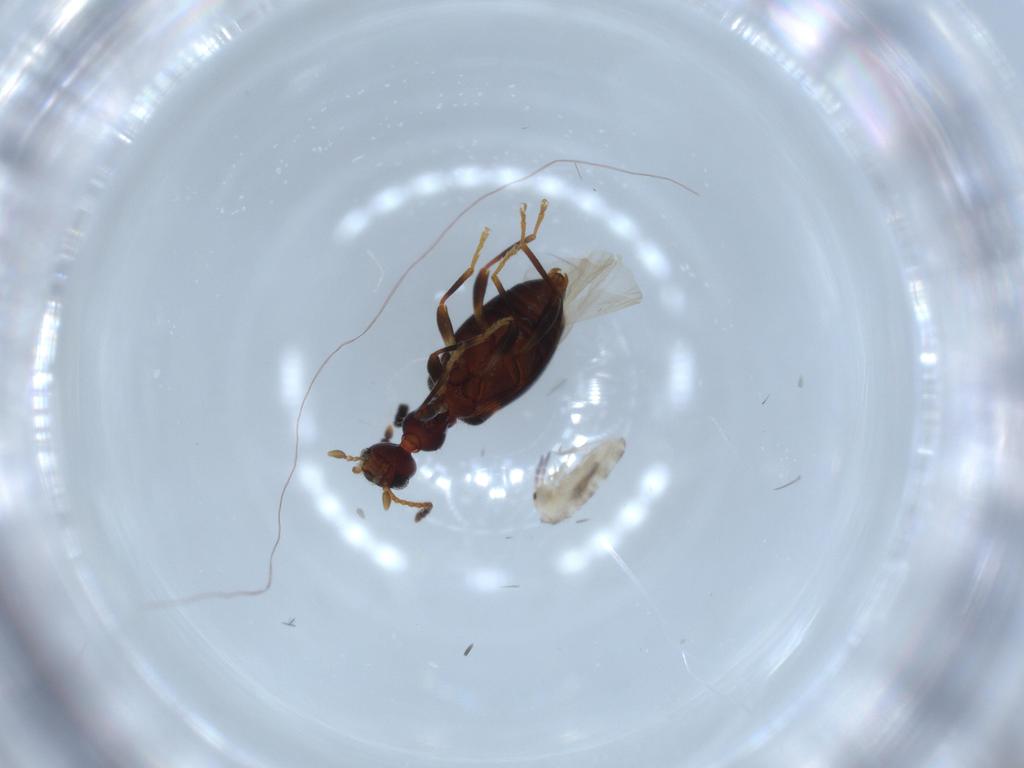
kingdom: Animalia
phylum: Arthropoda
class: Insecta
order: Coleoptera
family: Anthicidae
